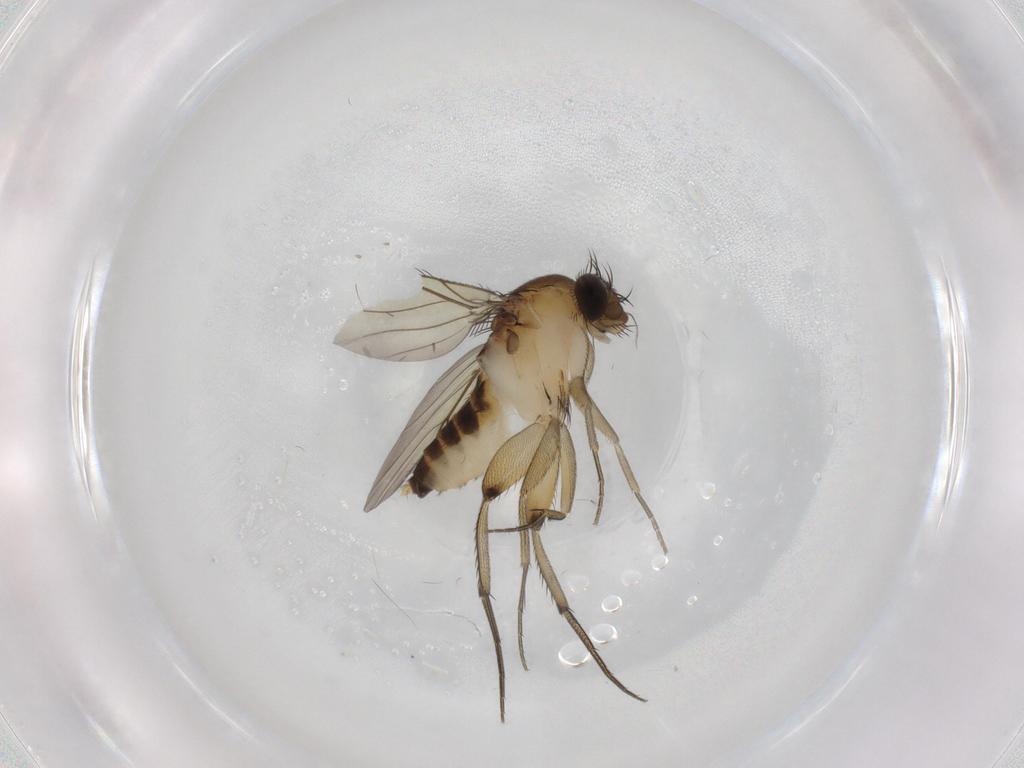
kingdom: Animalia
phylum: Arthropoda
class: Insecta
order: Diptera
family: Phoridae
